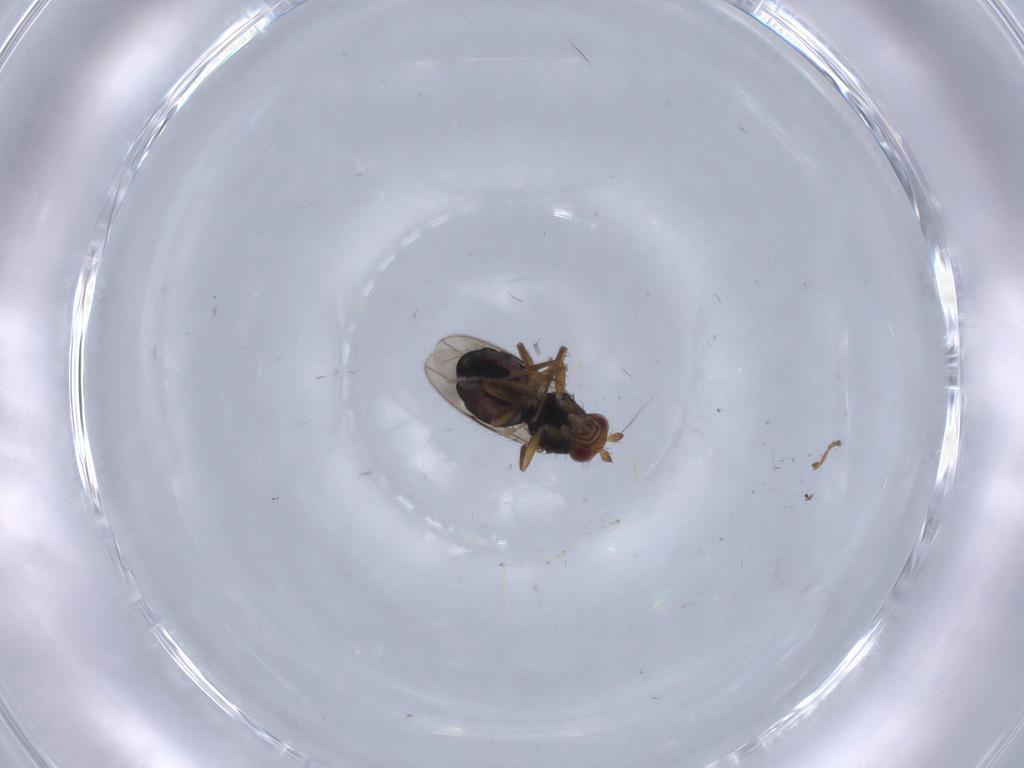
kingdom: Animalia
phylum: Arthropoda
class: Insecta
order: Diptera
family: Sphaeroceridae
